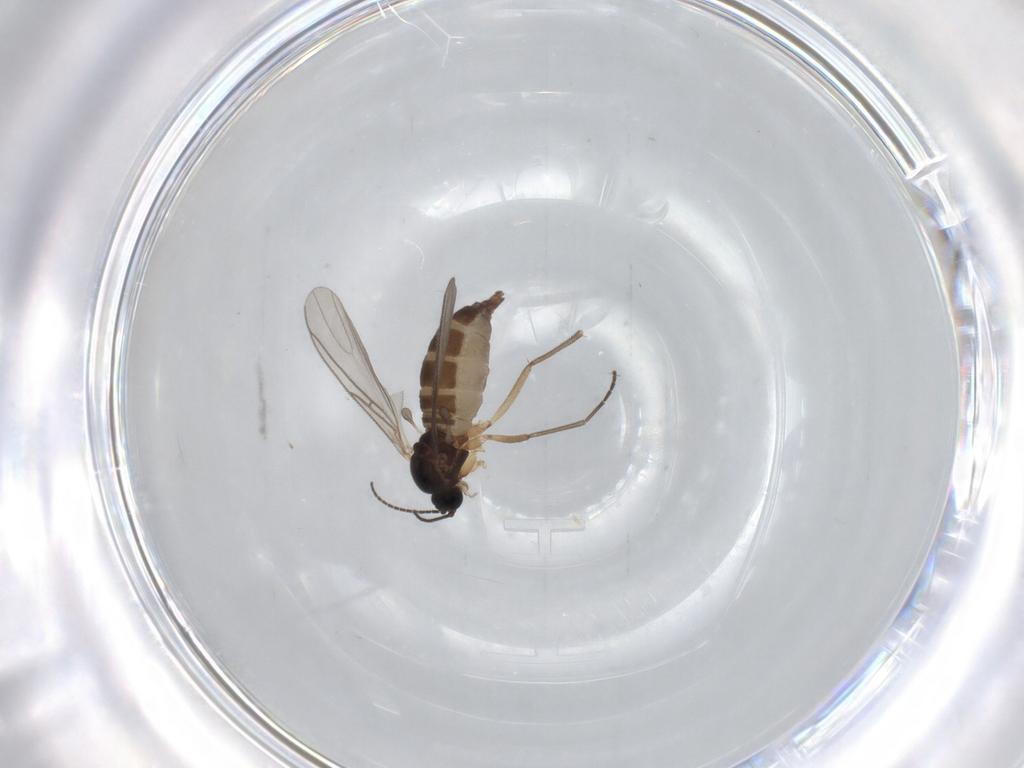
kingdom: Animalia
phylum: Arthropoda
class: Insecta
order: Diptera
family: Sciaridae
